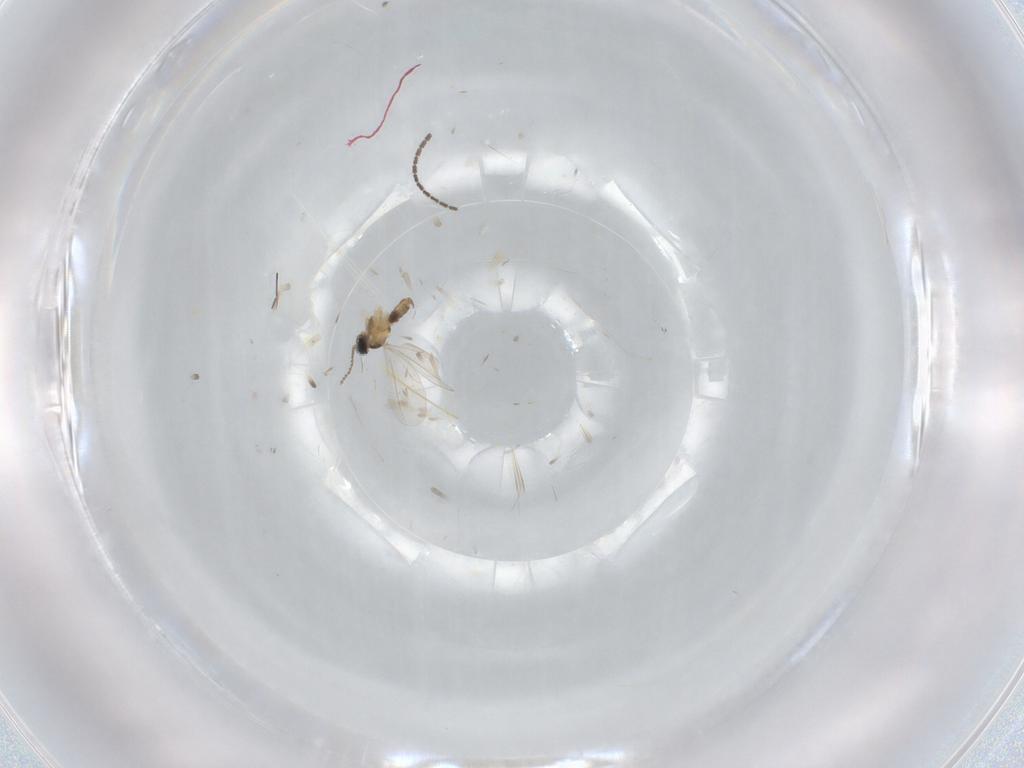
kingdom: Animalia
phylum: Arthropoda
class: Insecta
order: Diptera
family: Cecidomyiidae
